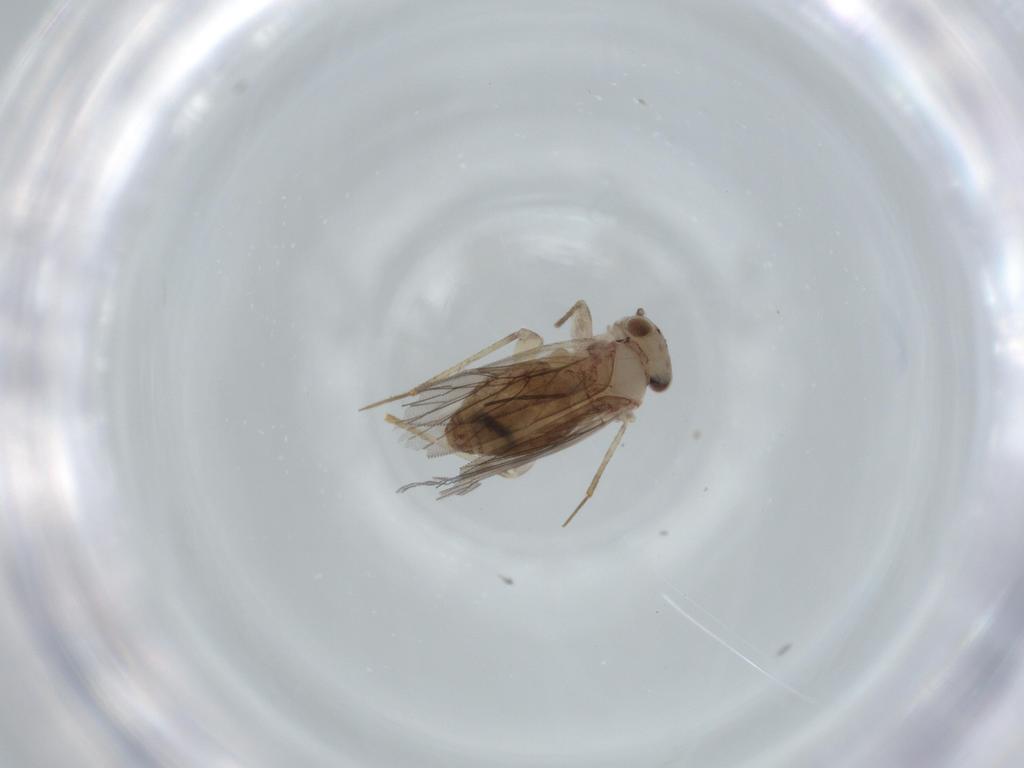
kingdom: Animalia
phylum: Arthropoda
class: Insecta
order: Psocodea
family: Lepidopsocidae
